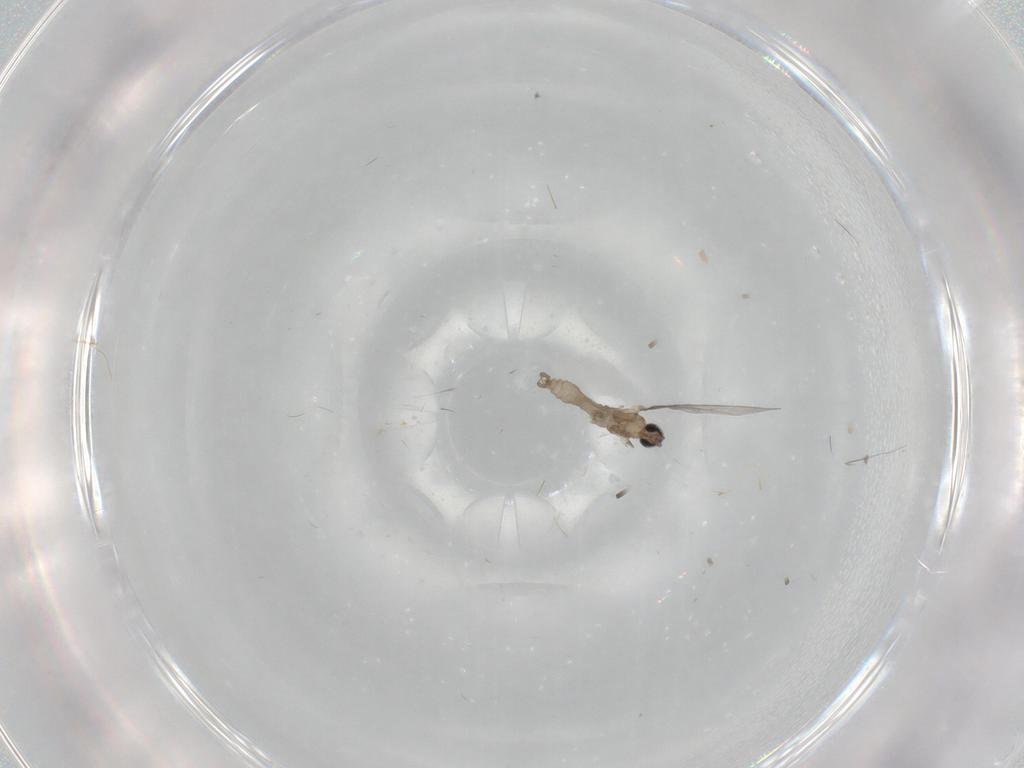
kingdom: Animalia
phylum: Arthropoda
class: Insecta
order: Diptera
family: Cecidomyiidae
